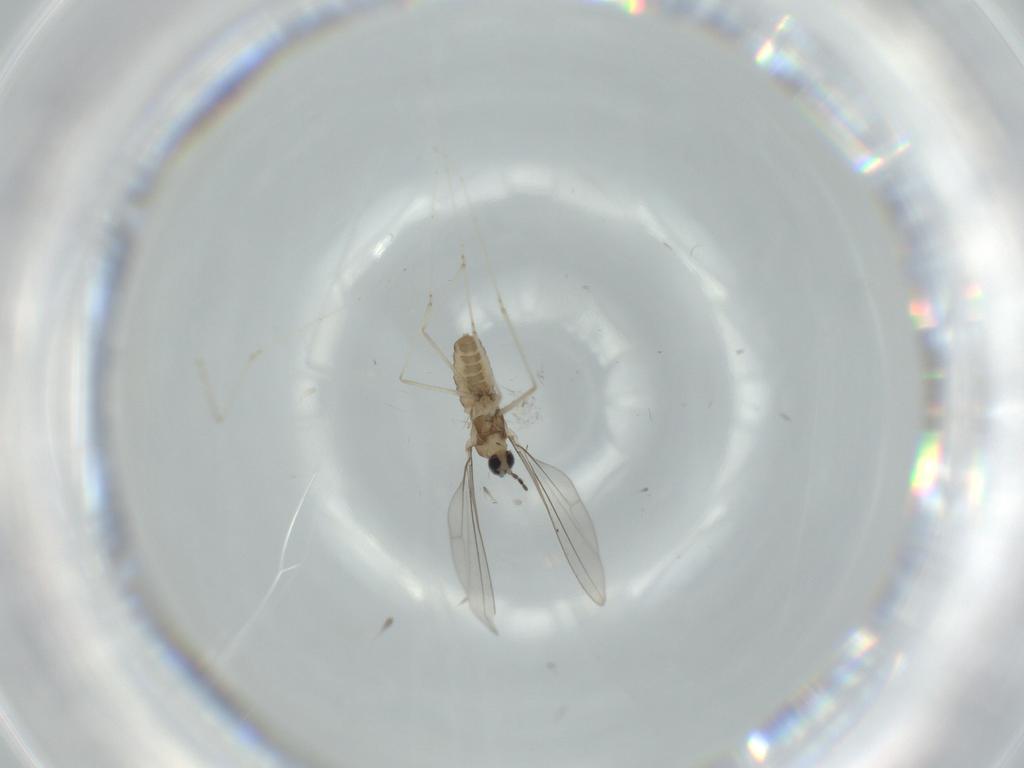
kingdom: Animalia
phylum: Arthropoda
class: Insecta
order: Diptera
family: Cecidomyiidae
